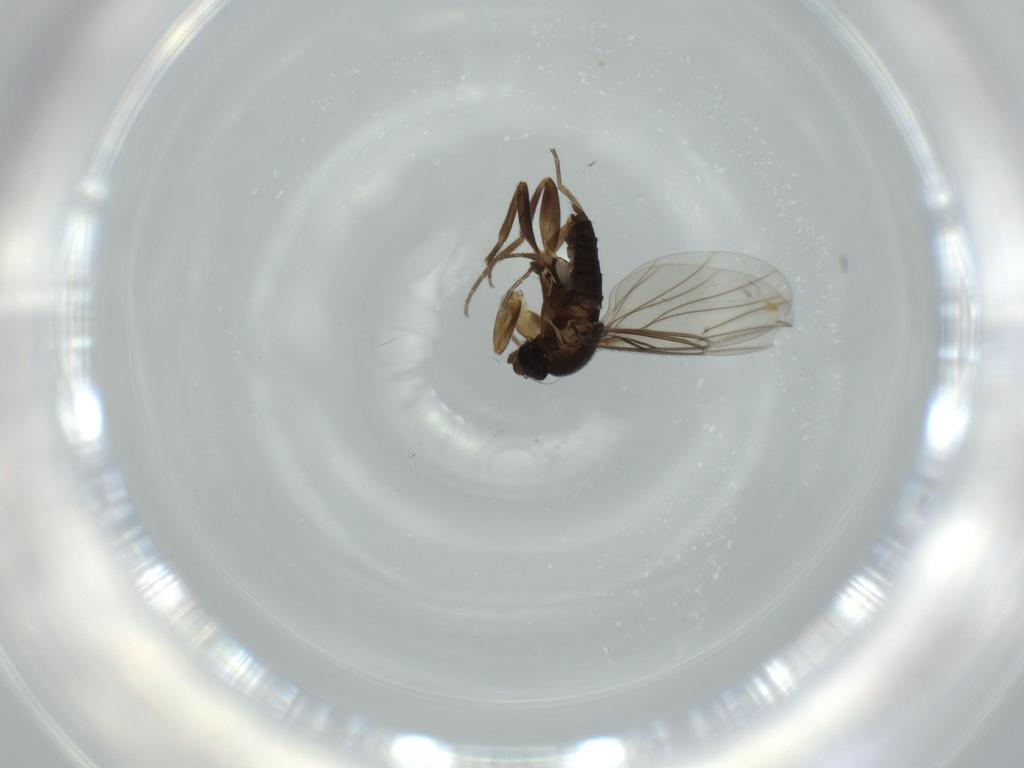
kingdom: Animalia
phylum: Arthropoda
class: Insecta
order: Diptera
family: Phoridae
